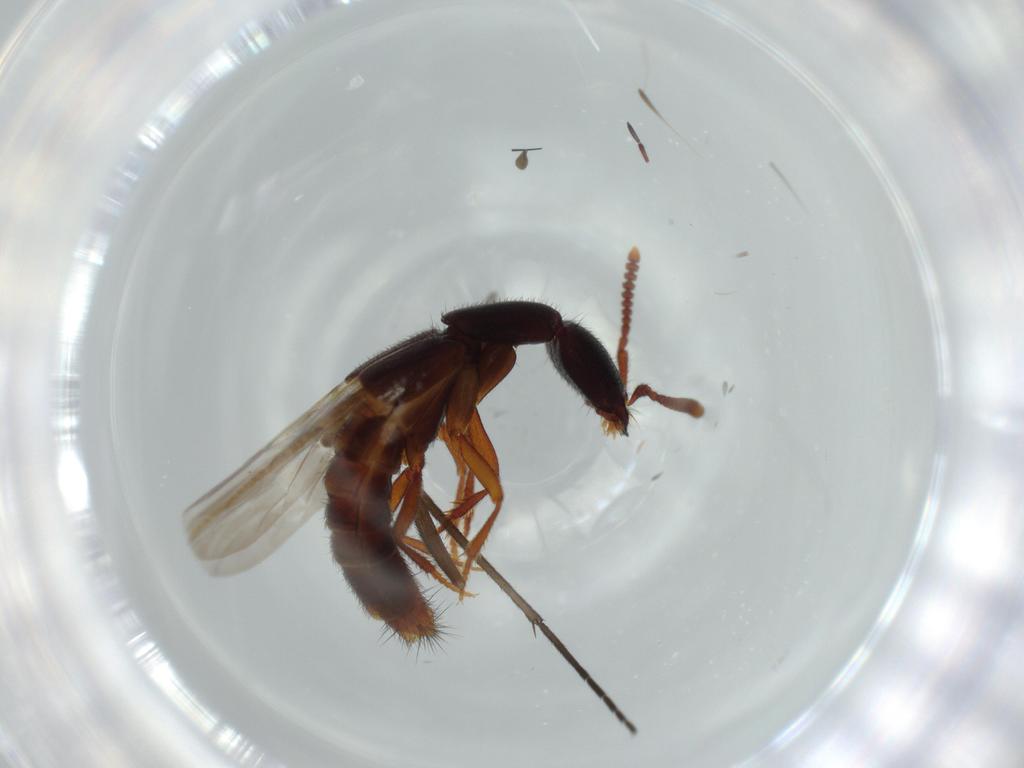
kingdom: Animalia
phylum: Arthropoda
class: Insecta
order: Coleoptera
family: Staphylinidae
